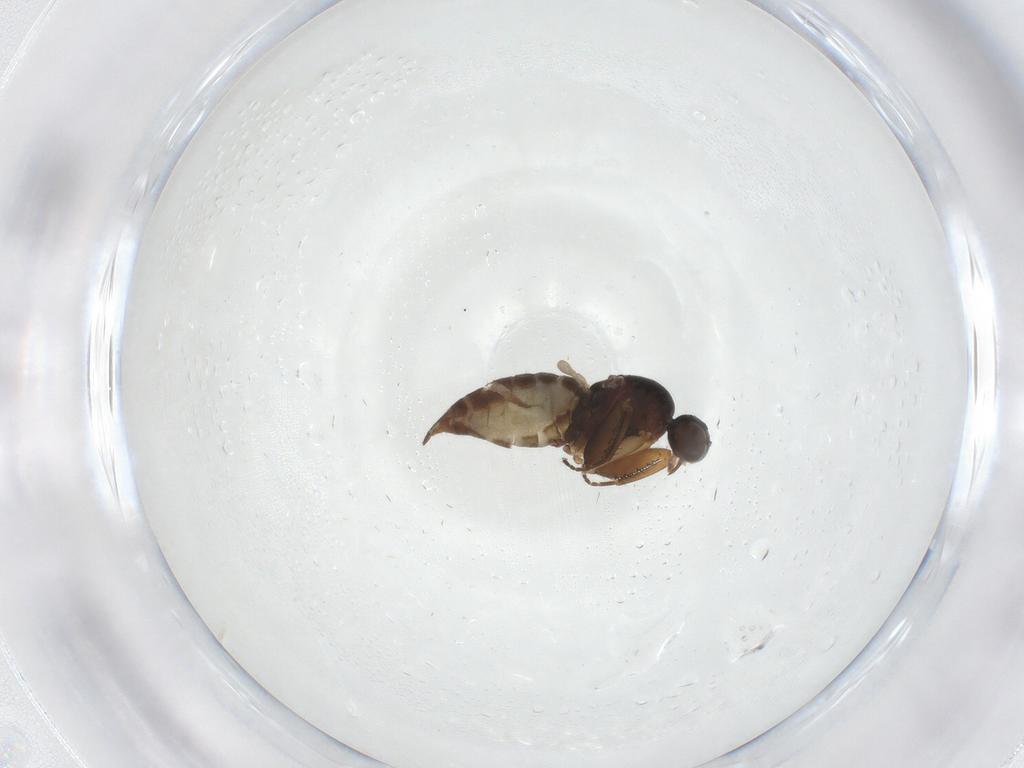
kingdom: Animalia
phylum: Arthropoda
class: Insecta
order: Diptera
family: Empididae
